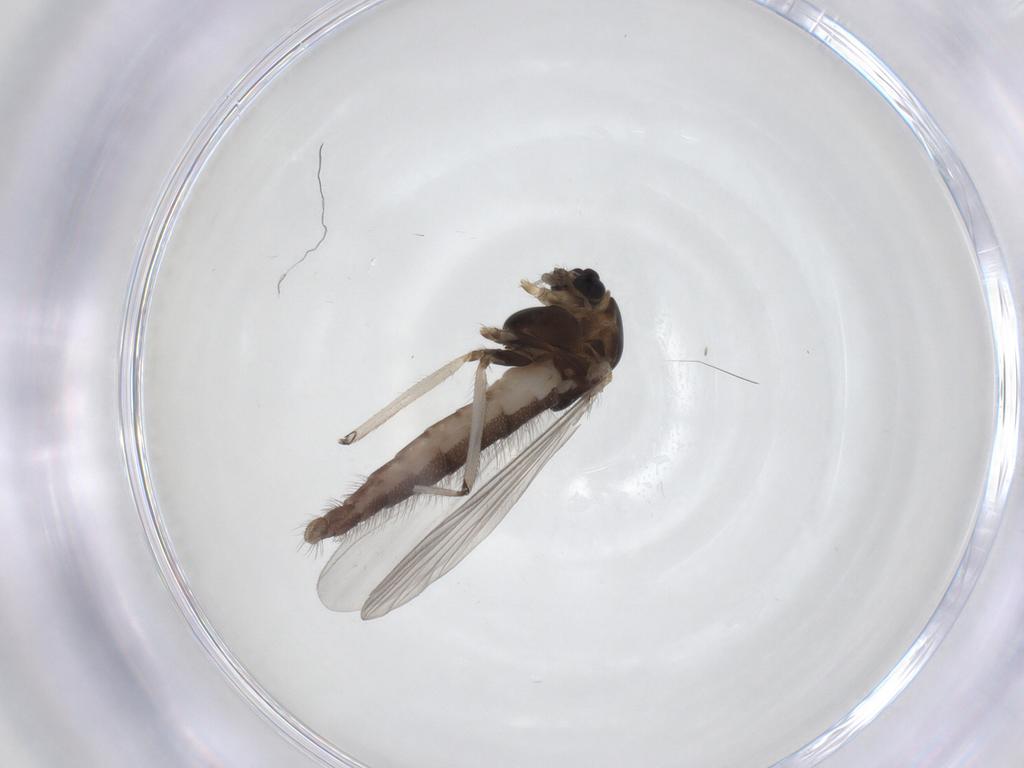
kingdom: Animalia
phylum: Arthropoda
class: Insecta
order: Diptera
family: Chironomidae
